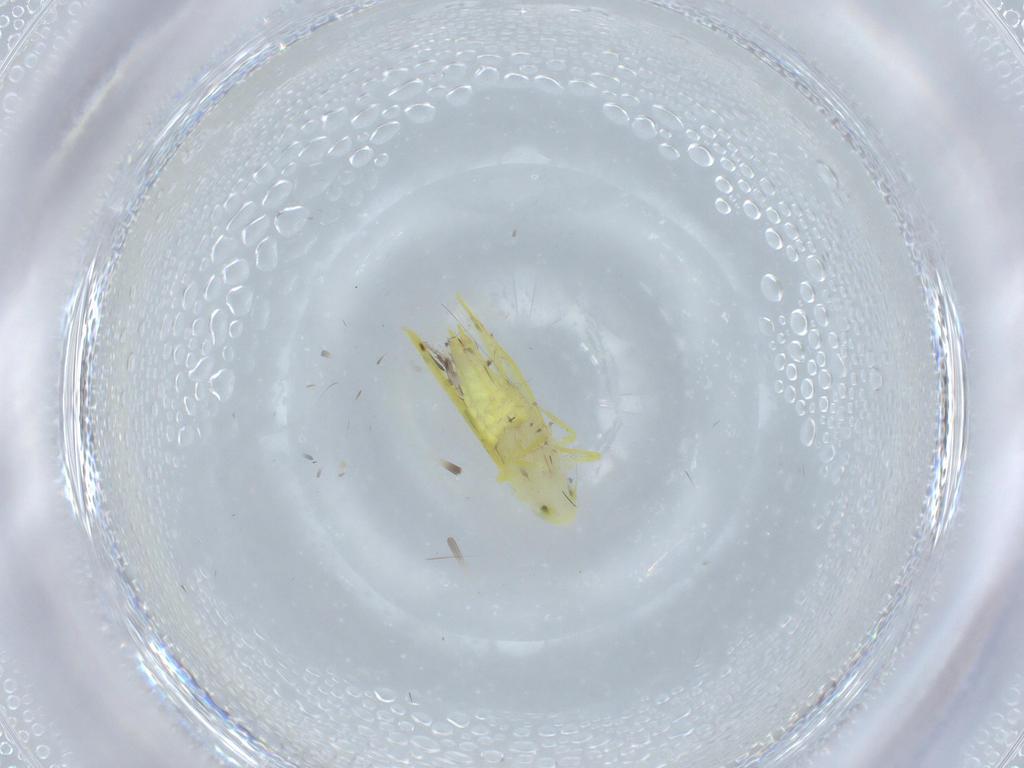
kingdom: Animalia
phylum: Arthropoda
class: Insecta
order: Hemiptera
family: Cicadellidae
